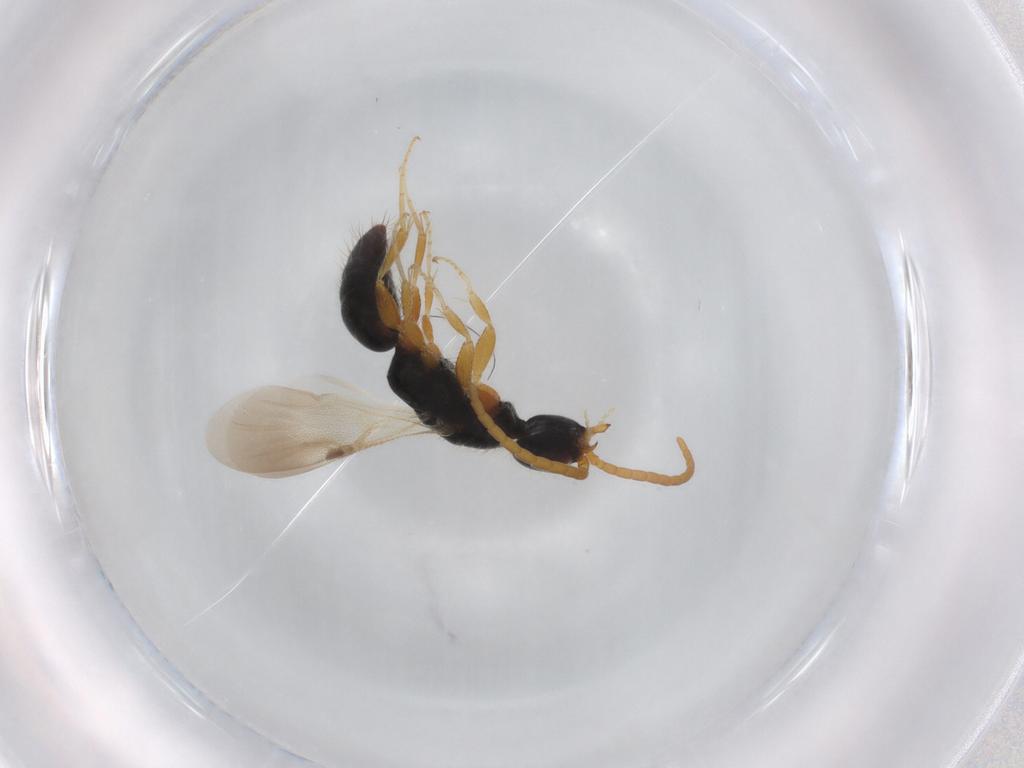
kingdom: Animalia
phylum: Arthropoda
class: Insecta
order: Hymenoptera
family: Bethylidae
